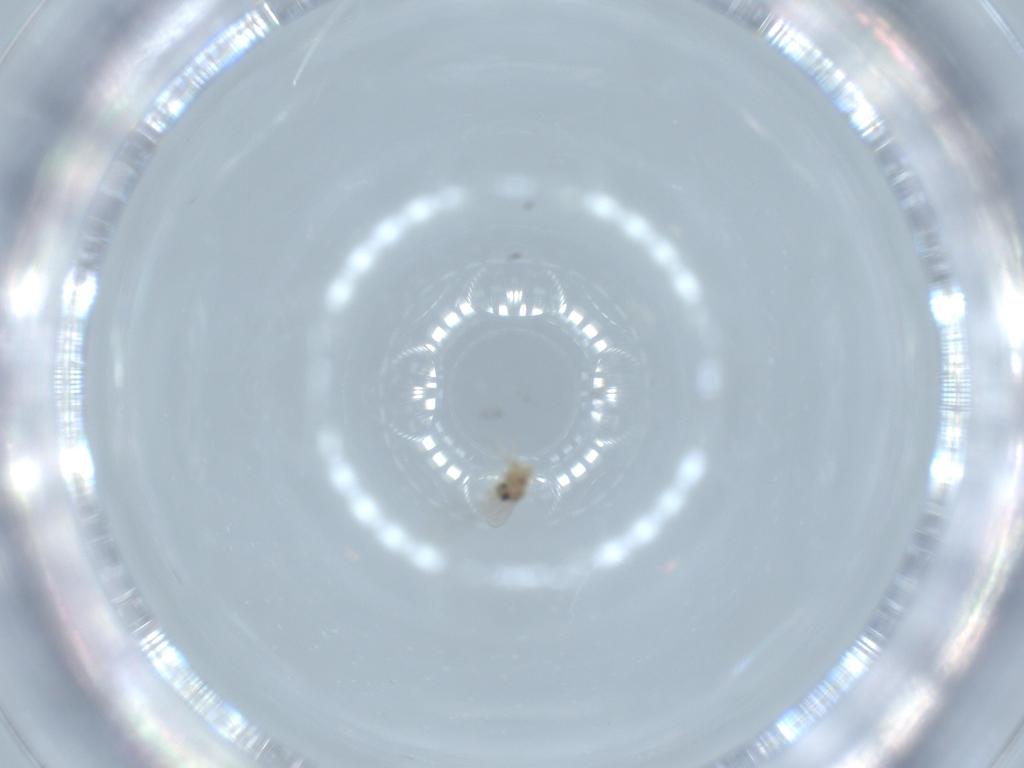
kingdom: Animalia
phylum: Arthropoda
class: Insecta
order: Diptera
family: Cecidomyiidae
